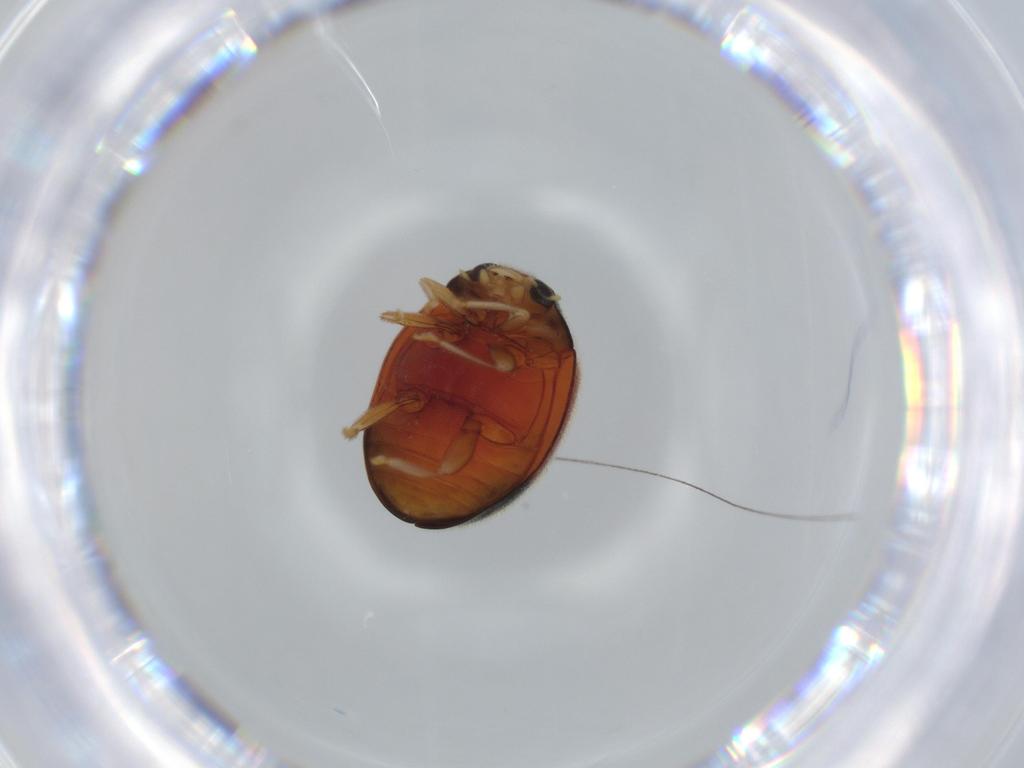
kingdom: Animalia
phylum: Arthropoda
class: Insecta
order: Coleoptera
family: Coccinellidae
